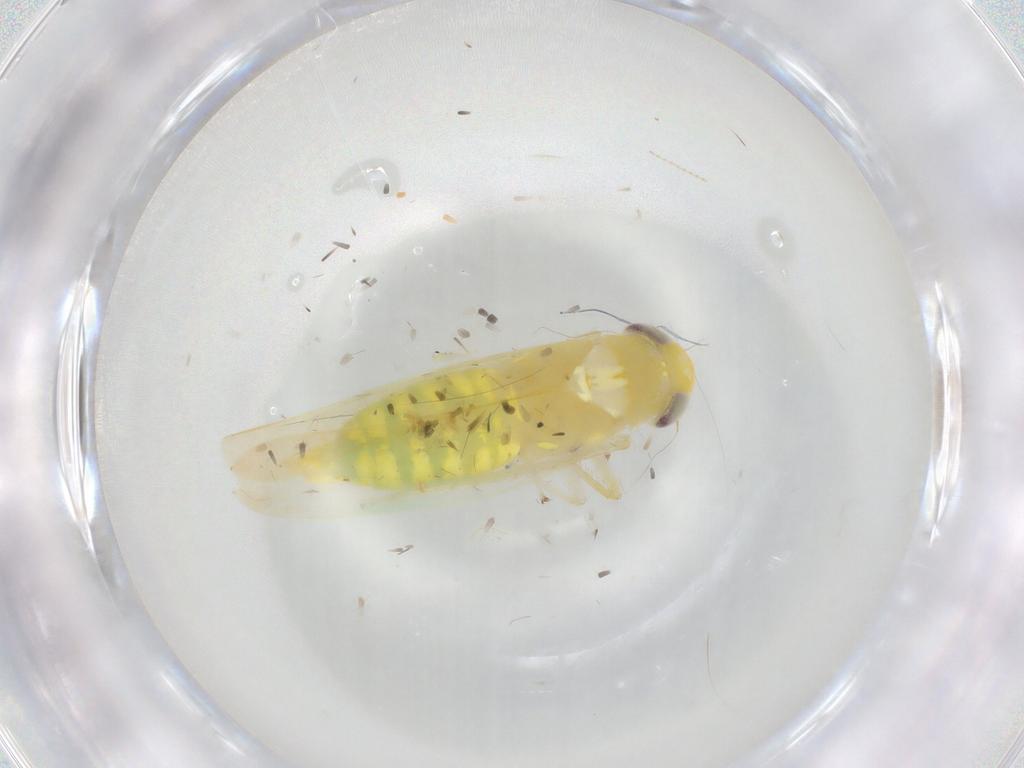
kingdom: Animalia
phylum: Arthropoda
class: Insecta
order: Hemiptera
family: Cicadellidae
